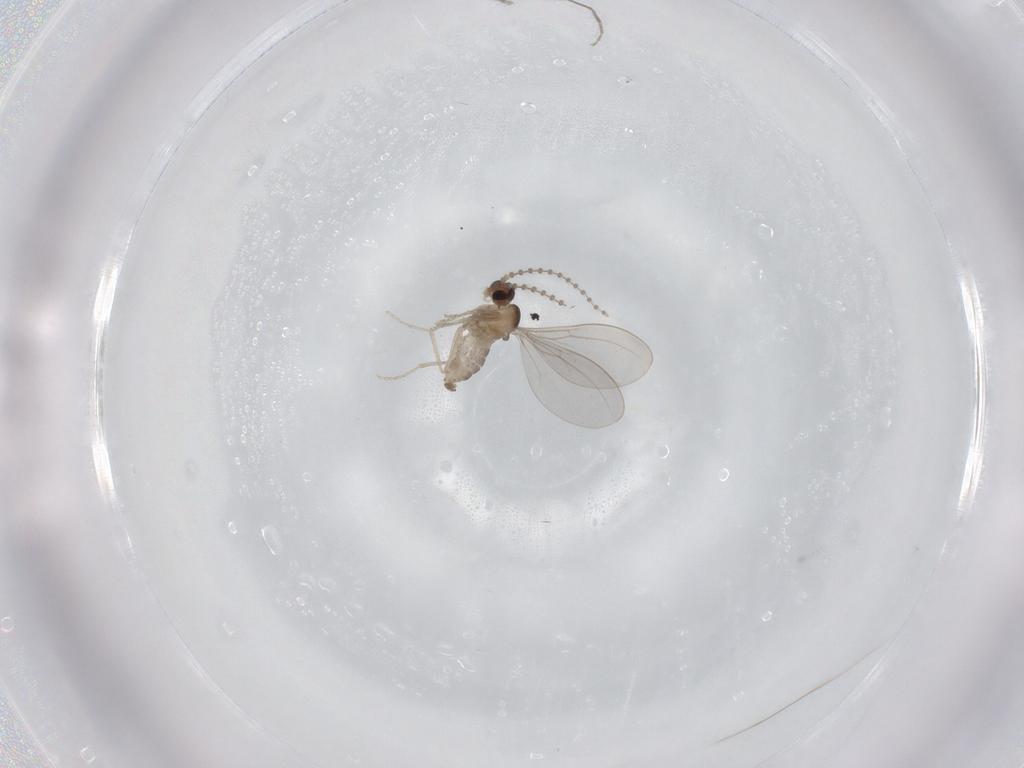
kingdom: Animalia
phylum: Arthropoda
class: Insecta
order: Diptera
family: Cecidomyiidae
